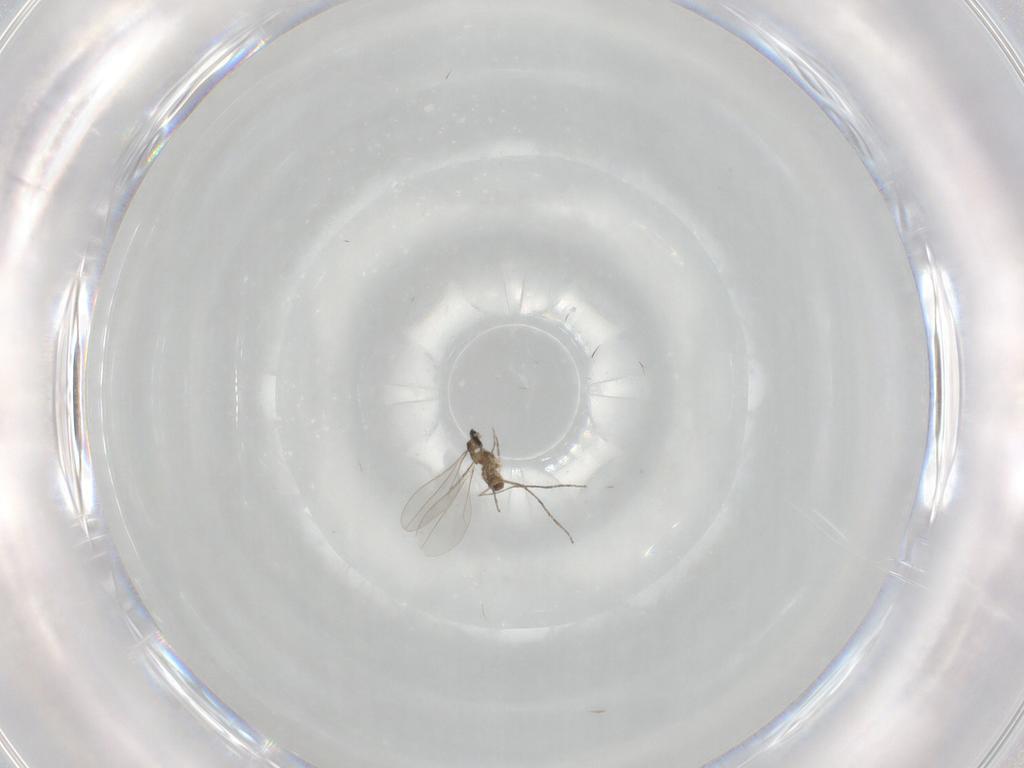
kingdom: Animalia
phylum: Arthropoda
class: Insecta
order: Diptera
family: Cecidomyiidae
